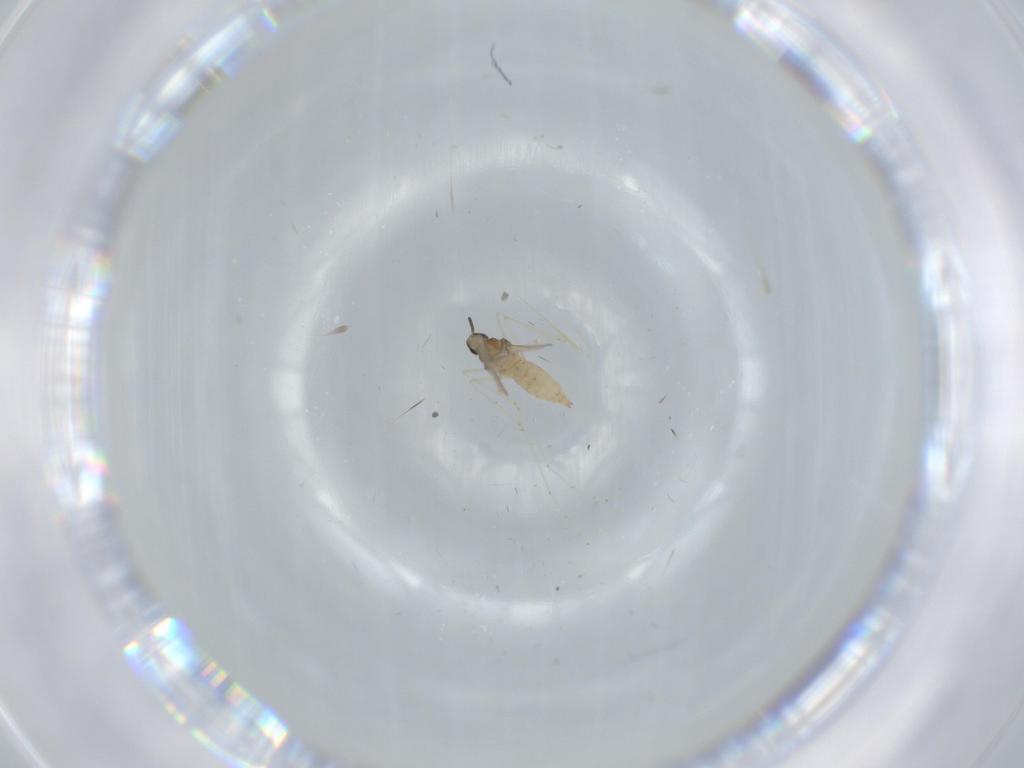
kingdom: Animalia
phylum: Arthropoda
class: Insecta
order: Diptera
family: Cecidomyiidae
